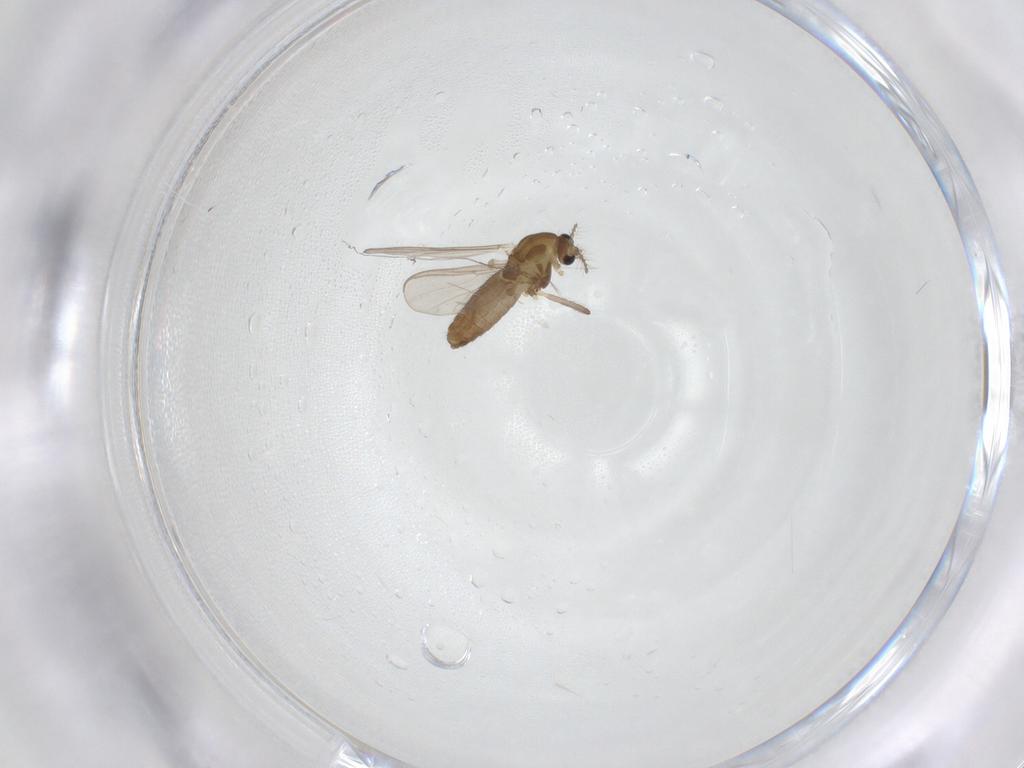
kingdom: Animalia
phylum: Arthropoda
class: Insecta
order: Diptera
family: Chironomidae
